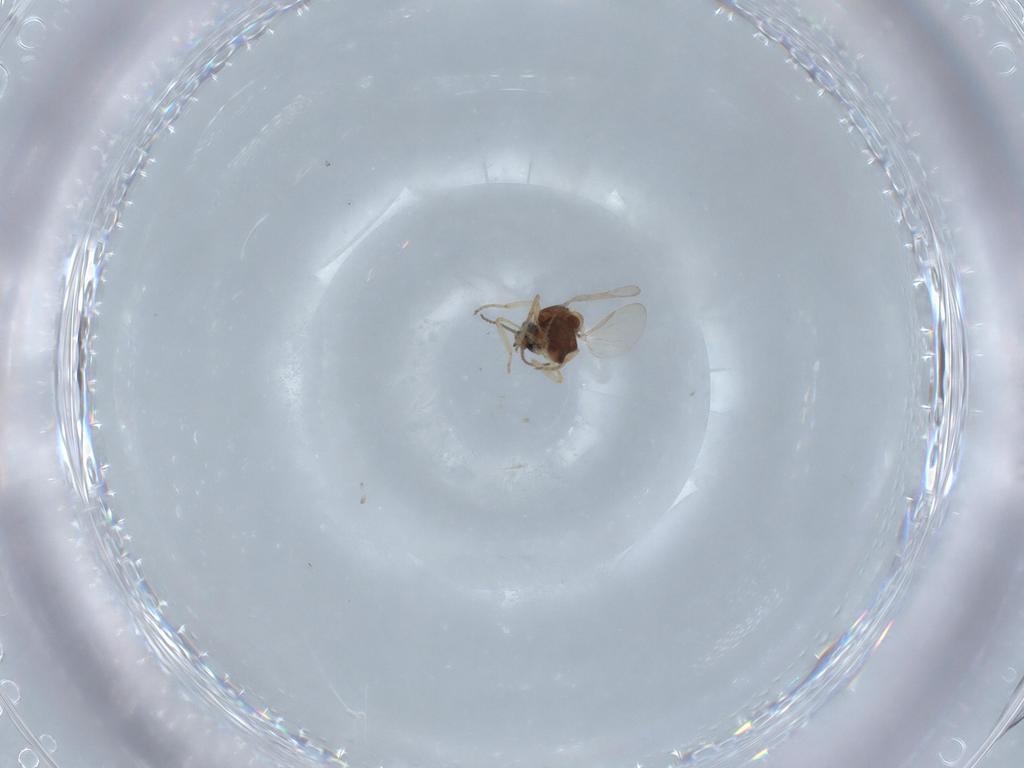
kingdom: Animalia
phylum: Arthropoda
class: Insecta
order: Diptera
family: Ceratopogonidae
